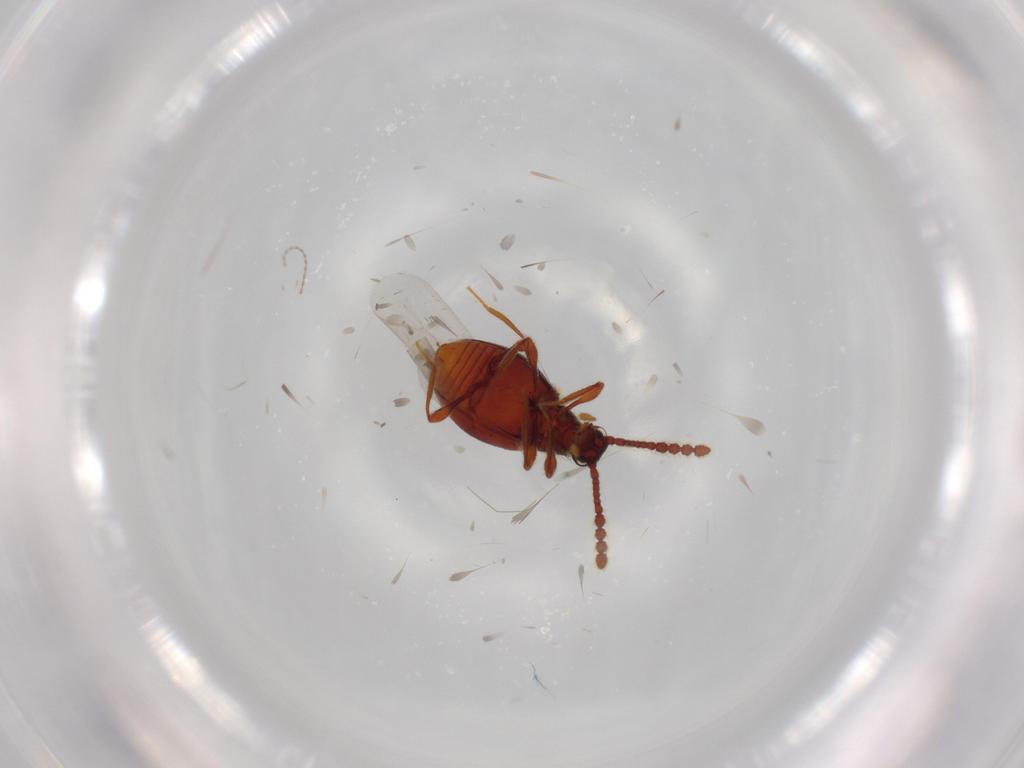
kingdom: Animalia
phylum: Arthropoda
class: Insecta
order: Coleoptera
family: Staphylinidae
